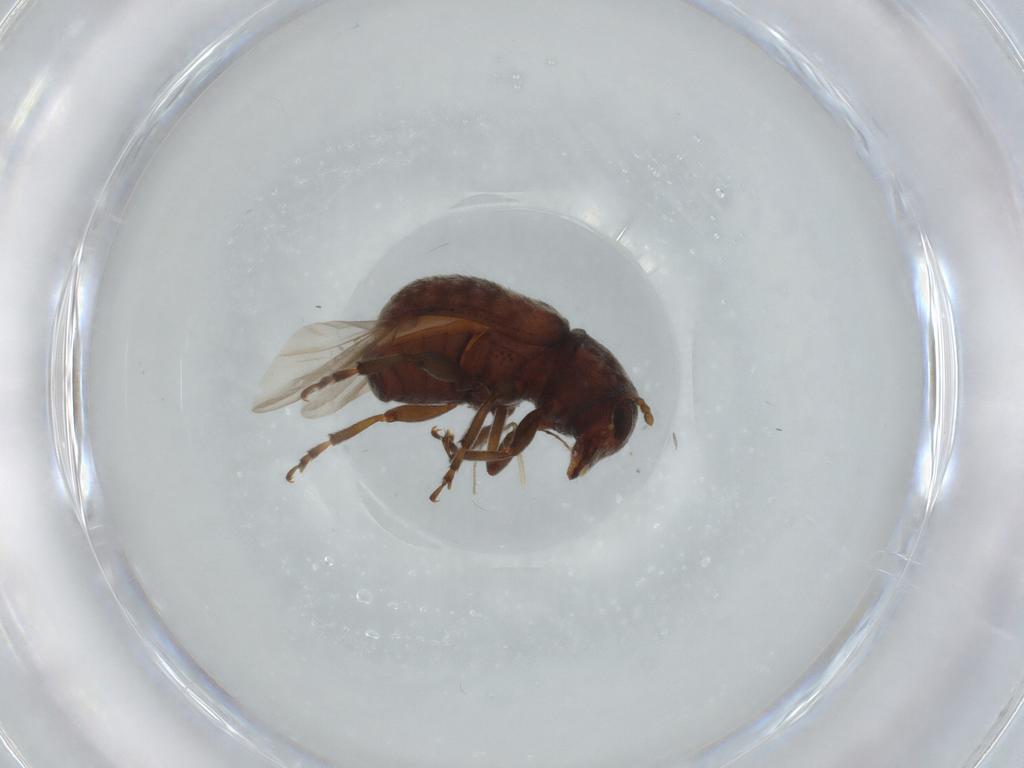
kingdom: Animalia
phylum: Arthropoda
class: Insecta
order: Coleoptera
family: Anthribidae
